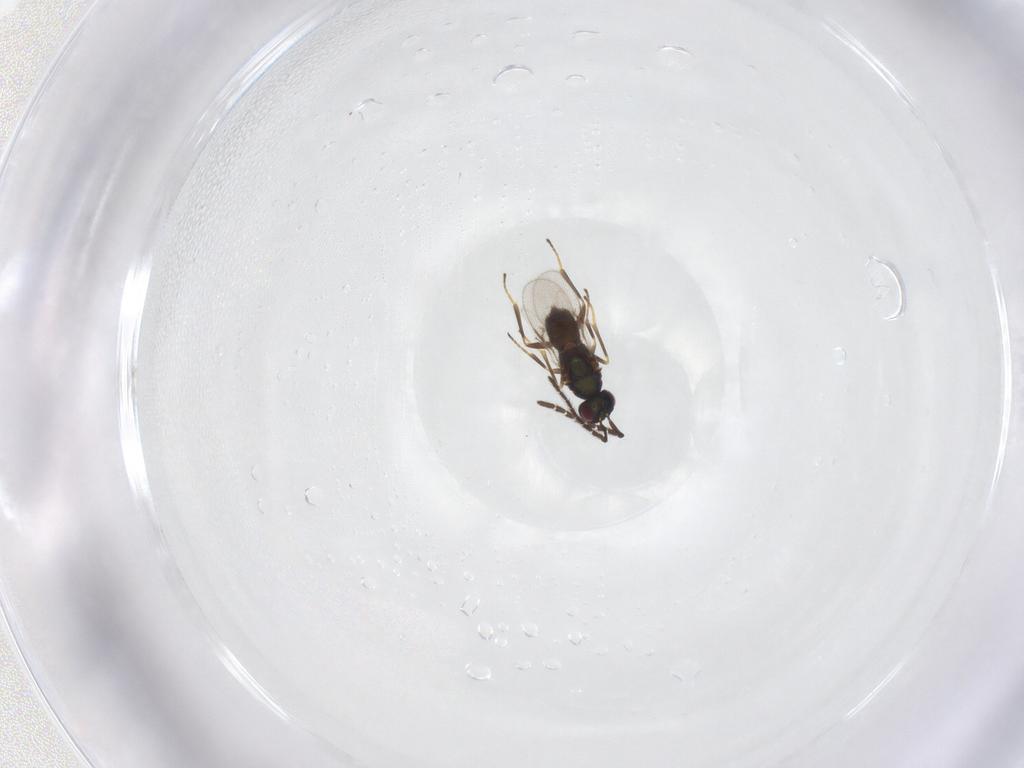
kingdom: Animalia
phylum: Arthropoda
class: Insecta
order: Hymenoptera
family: Encyrtidae
